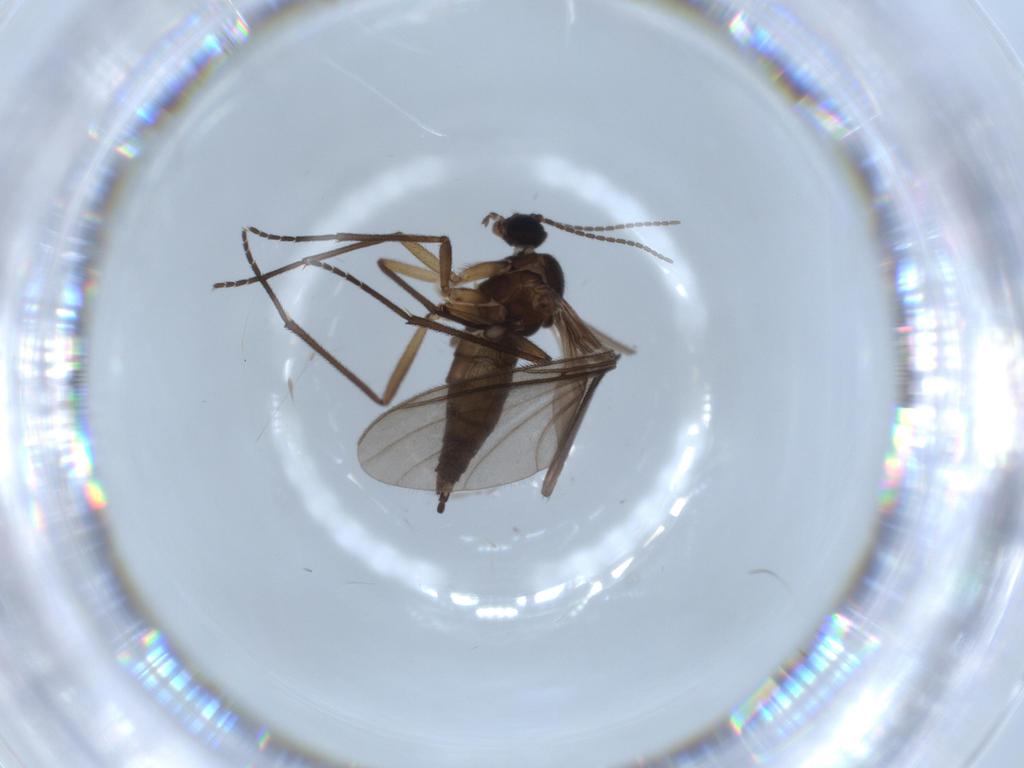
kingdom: Animalia
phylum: Arthropoda
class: Insecta
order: Diptera
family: Sciaridae
